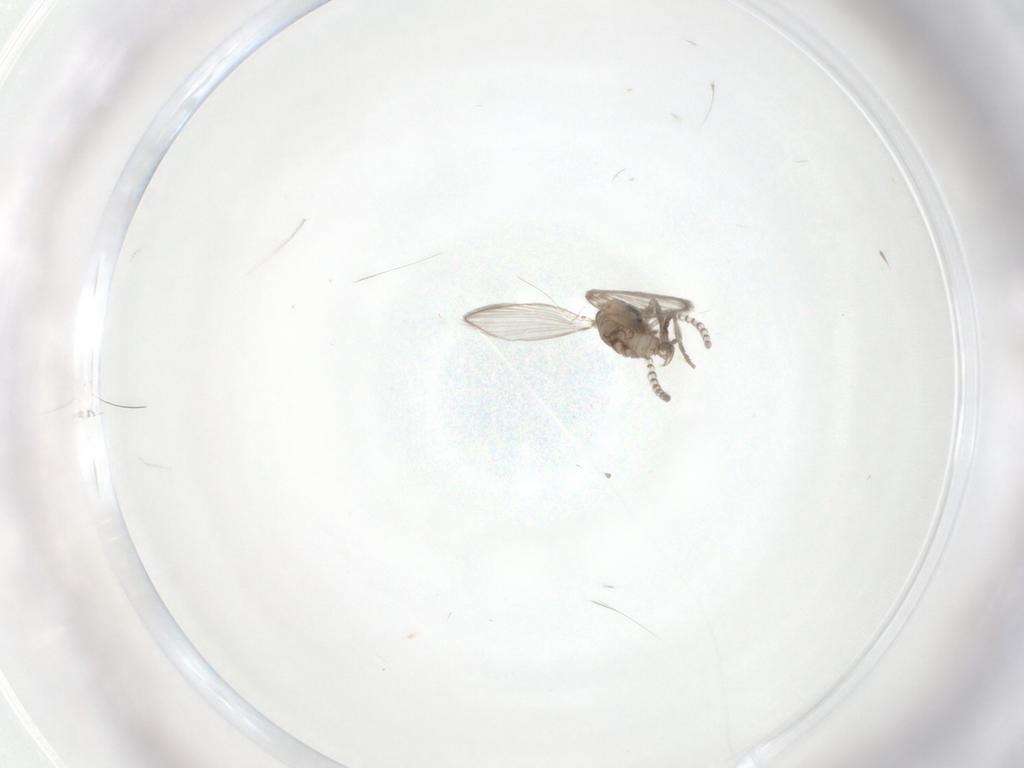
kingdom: Animalia
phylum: Arthropoda
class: Insecta
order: Diptera
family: Psychodidae
